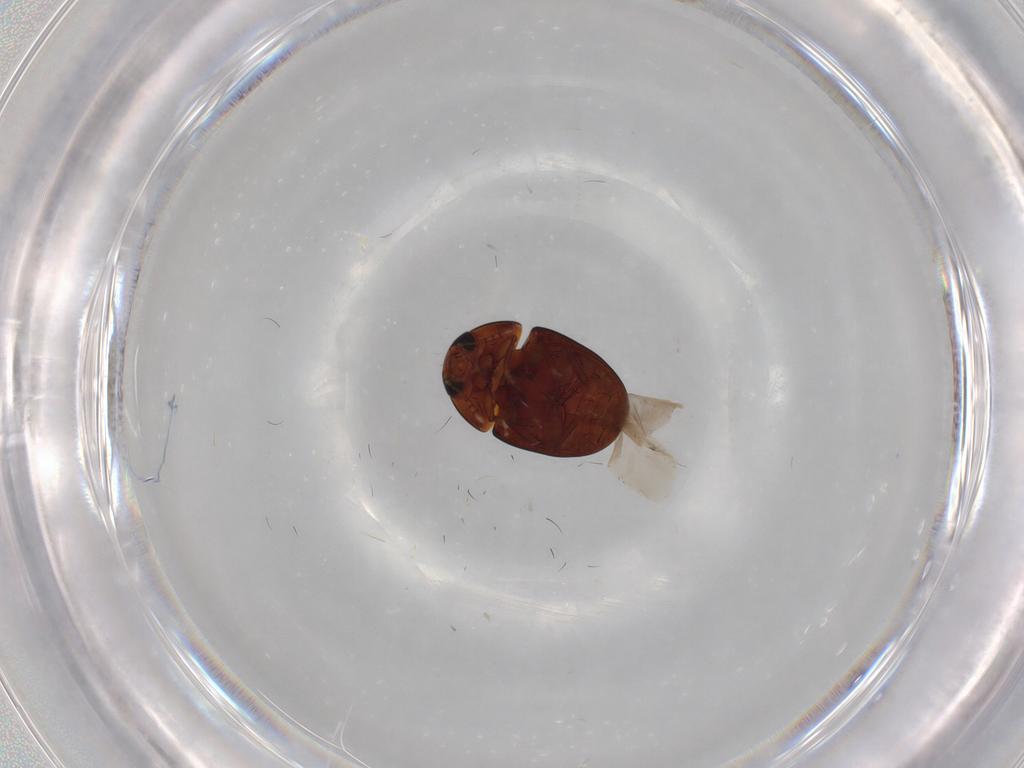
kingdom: Animalia
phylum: Arthropoda
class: Insecta
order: Coleoptera
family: Phalacridae
